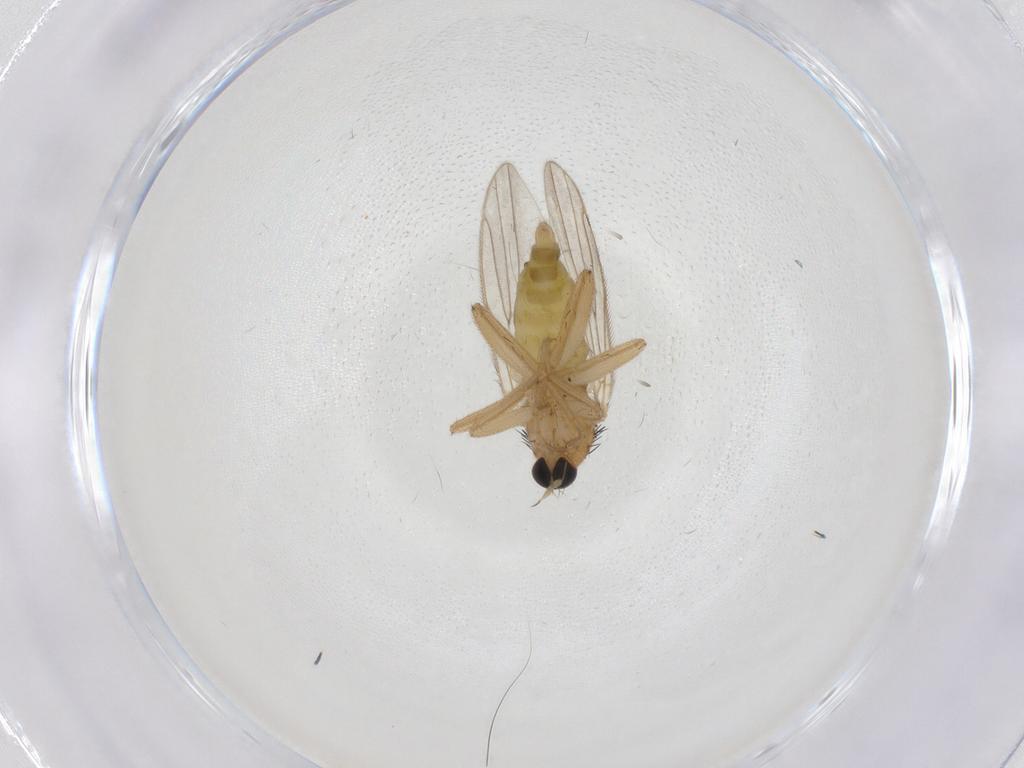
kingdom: Animalia
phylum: Arthropoda
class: Insecta
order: Diptera
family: Hybotidae
